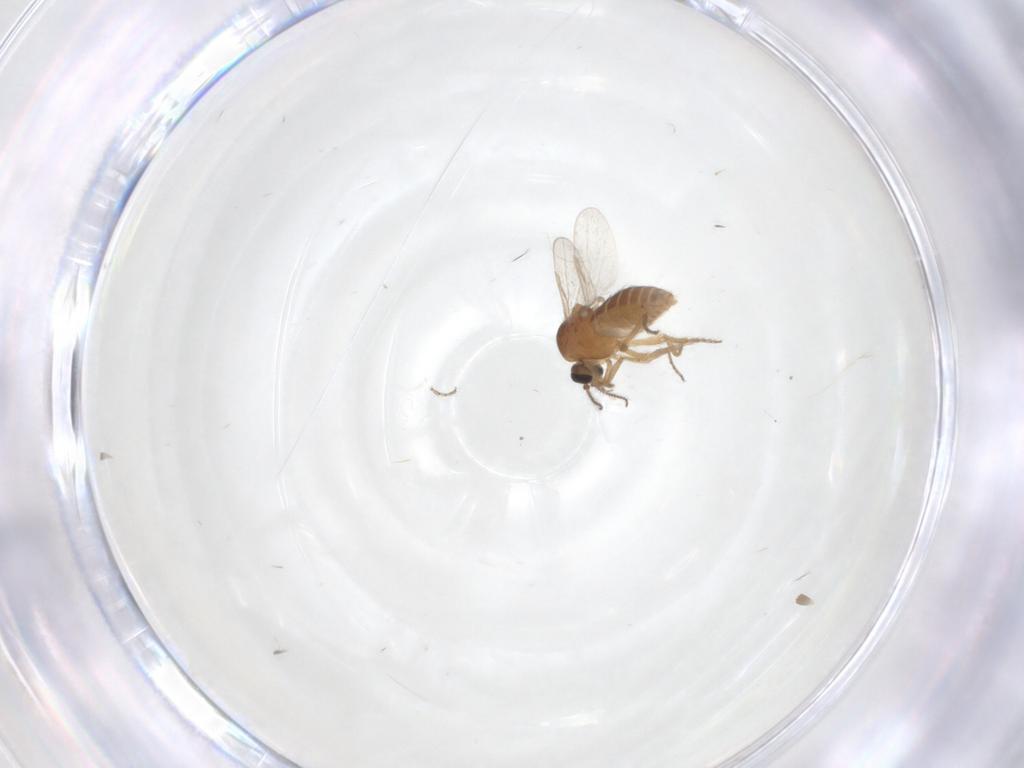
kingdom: Animalia
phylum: Arthropoda
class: Insecta
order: Diptera
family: Ceratopogonidae
